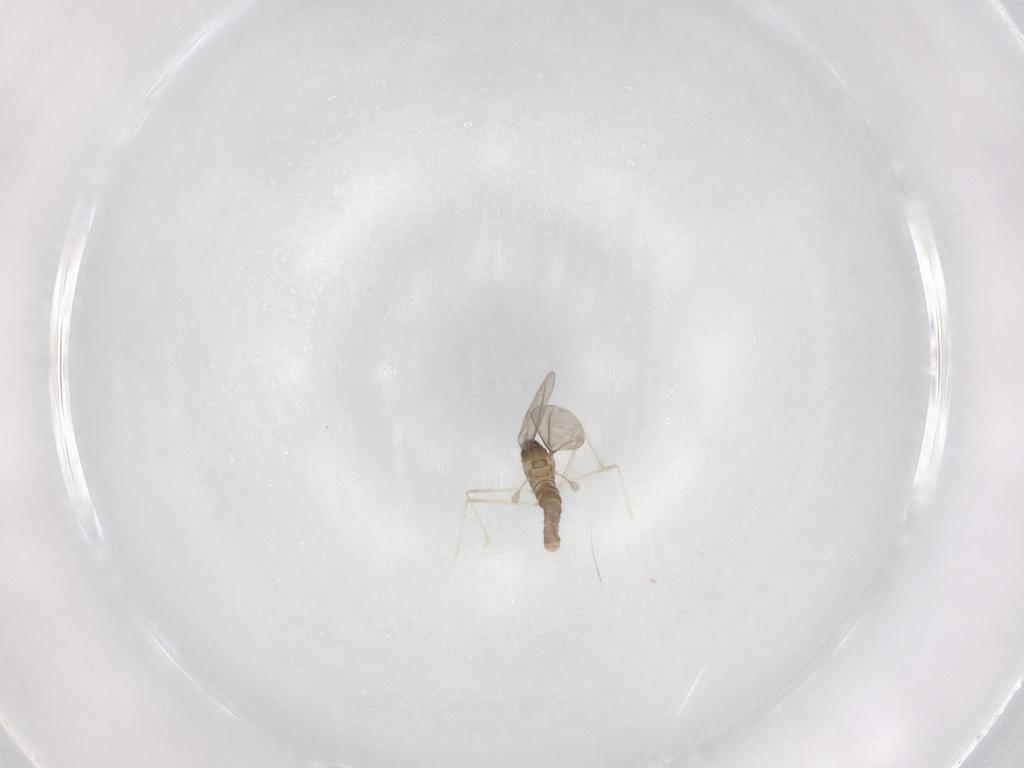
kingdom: Animalia
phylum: Arthropoda
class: Insecta
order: Diptera
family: Cecidomyiidae
